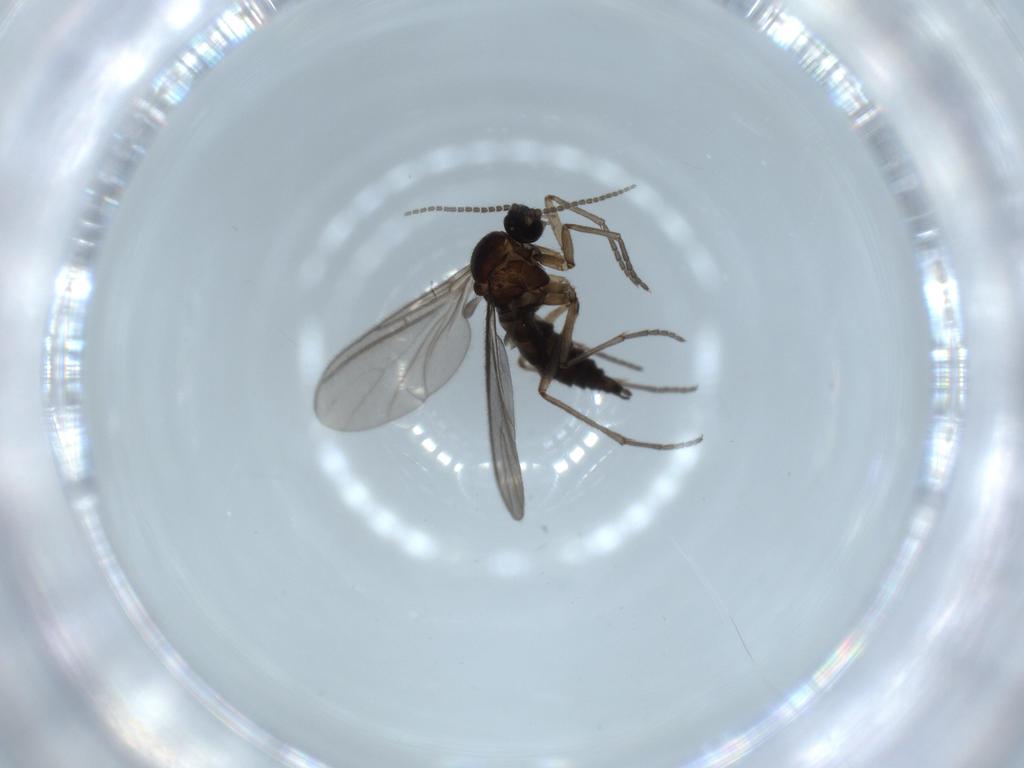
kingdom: Animalia
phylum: Arthropoda
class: Insecta
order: Diptera
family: Sciaridae
